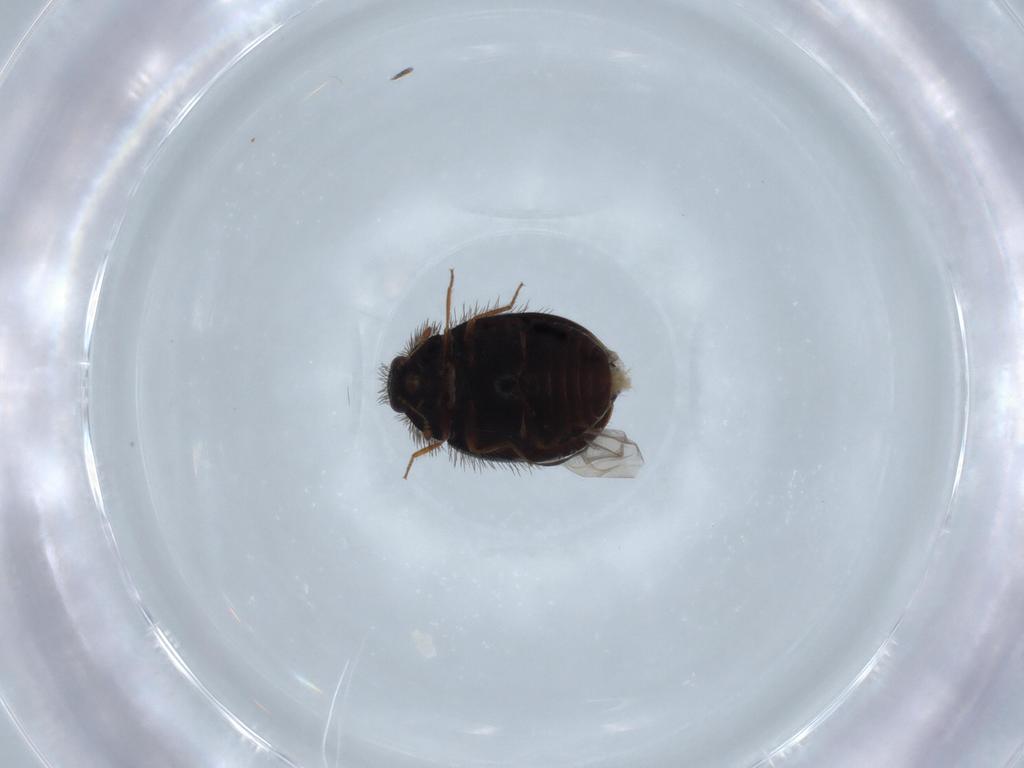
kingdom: Animalia
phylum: Arthropoda
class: Insecta
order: Coleoptera
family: Dermestidae
